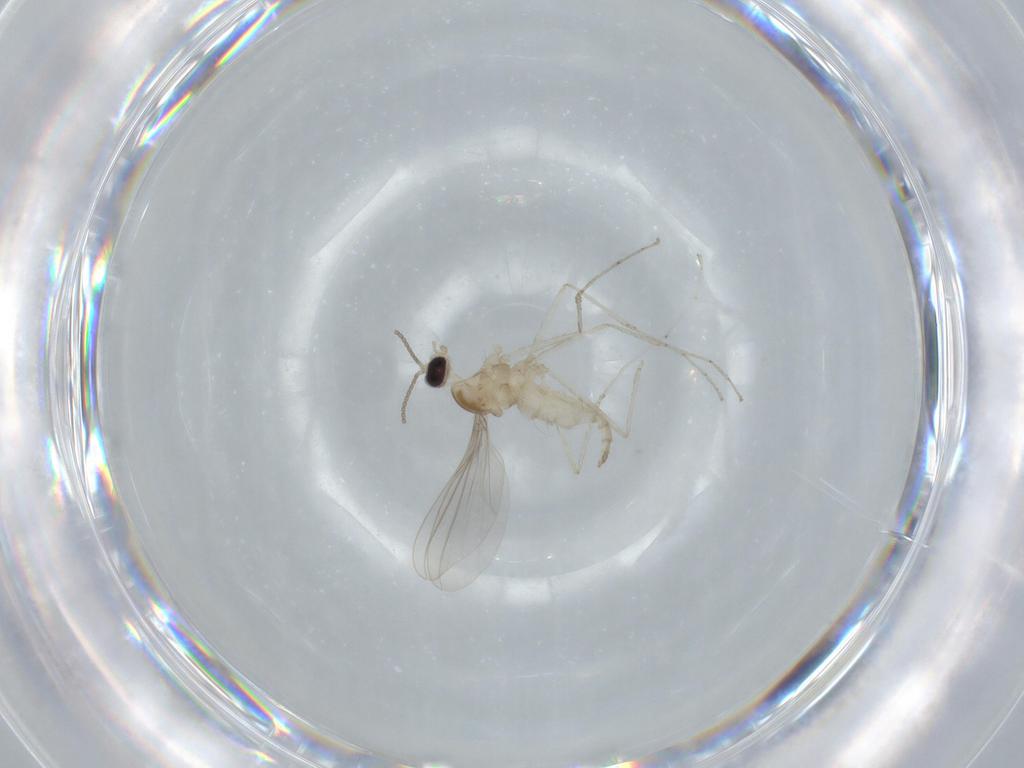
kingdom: Animalia
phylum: Arthropoda
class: Insecta
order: Diptera
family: Cecidomyiidae
